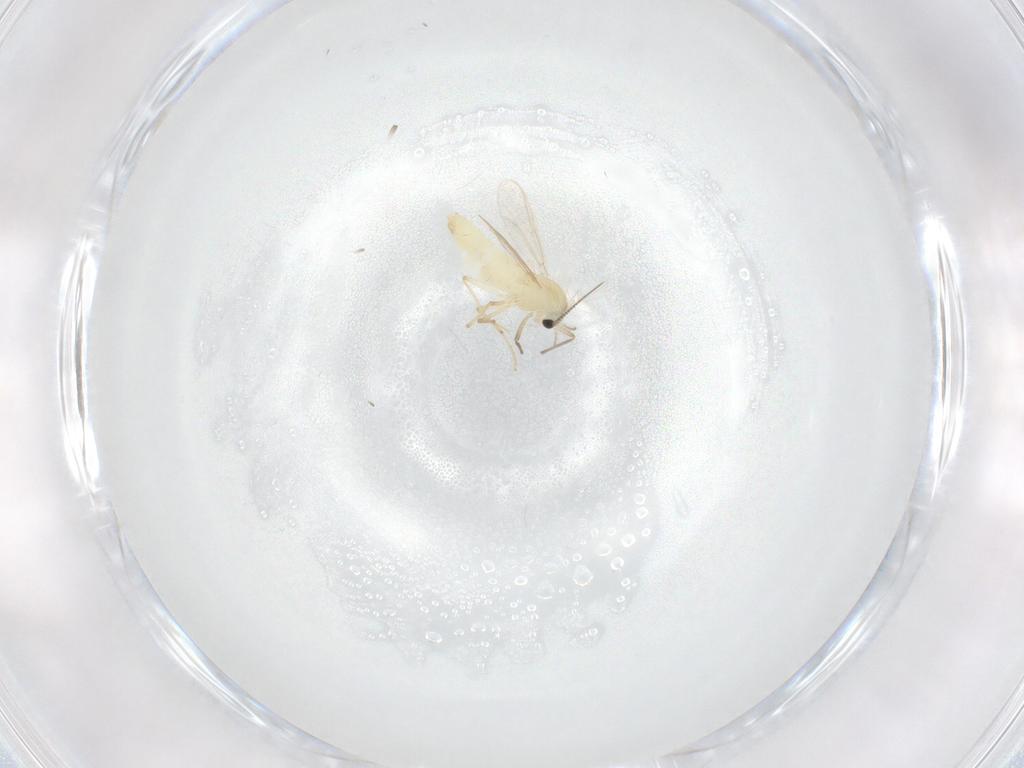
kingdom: Animalia
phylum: Arthropoda
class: Insecta
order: Diptera
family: Chironomidae
